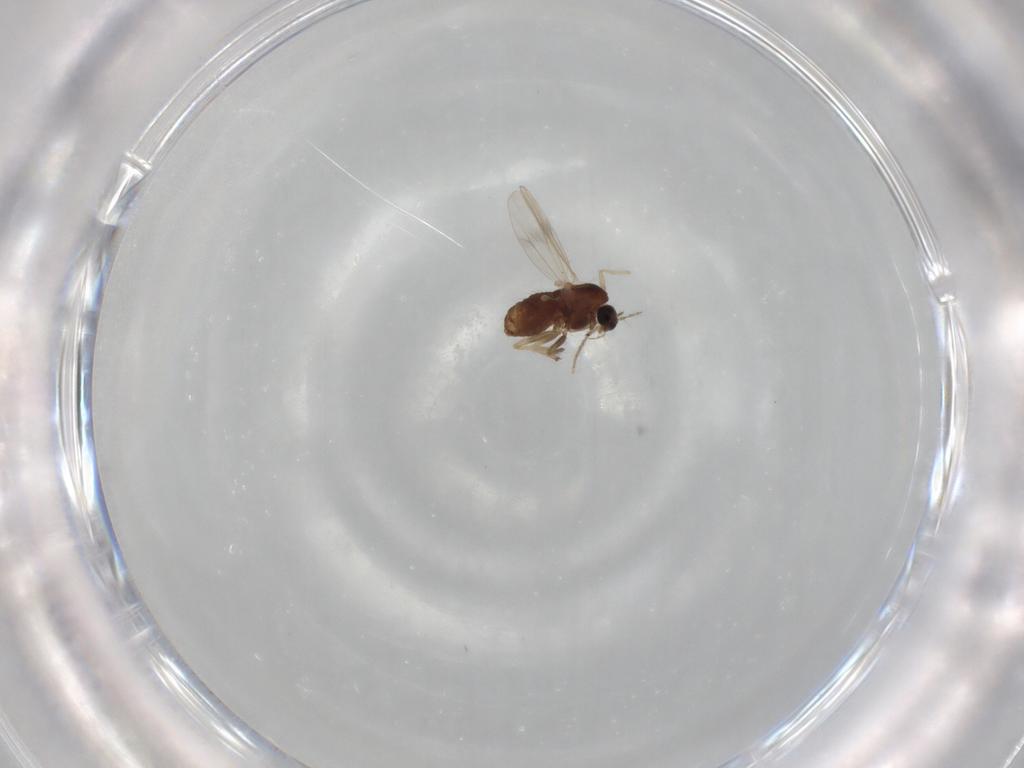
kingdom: Animalia
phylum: Arthropoda
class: Insecta
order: Diptera
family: Chironomidae
